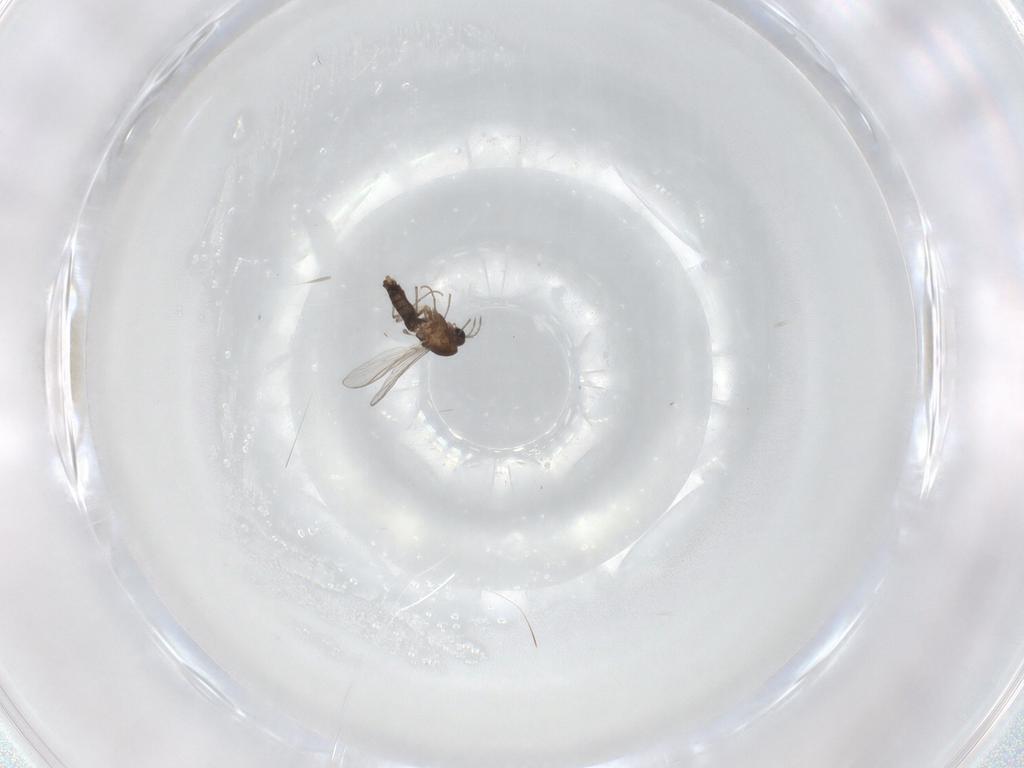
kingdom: Animalia
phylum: Arthropoda
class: Insecta
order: Diptera
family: Chironomidae
